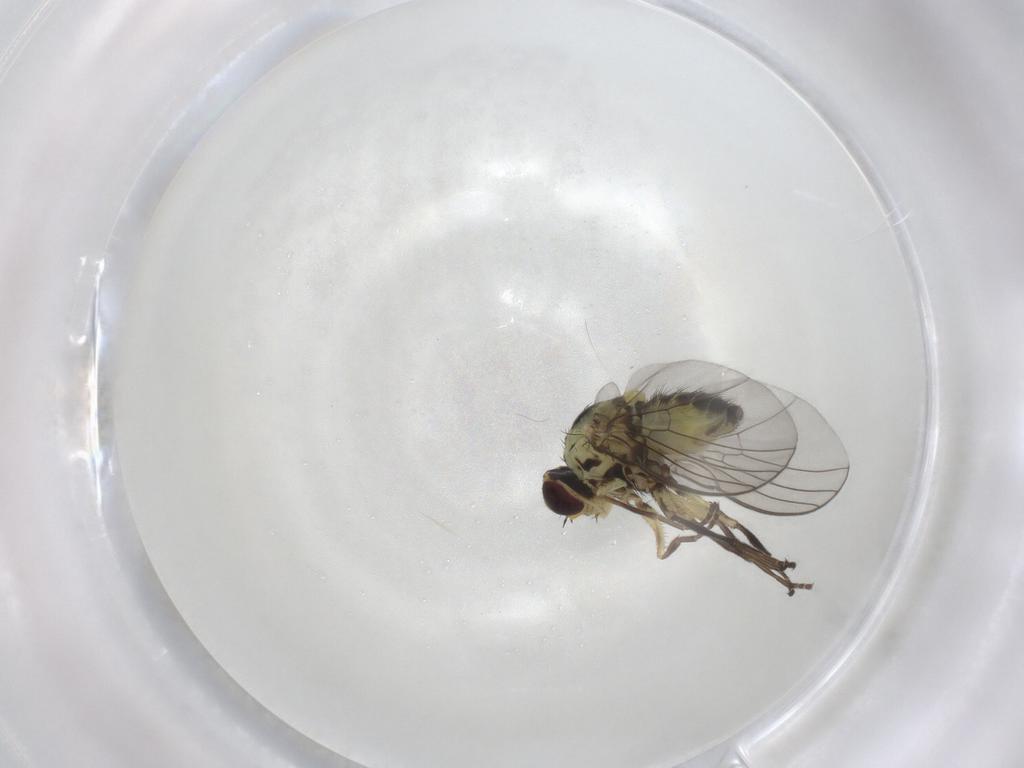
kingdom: Animalia
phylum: Arthropoda
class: Insecta
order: Diptera
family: Agromyzidae
